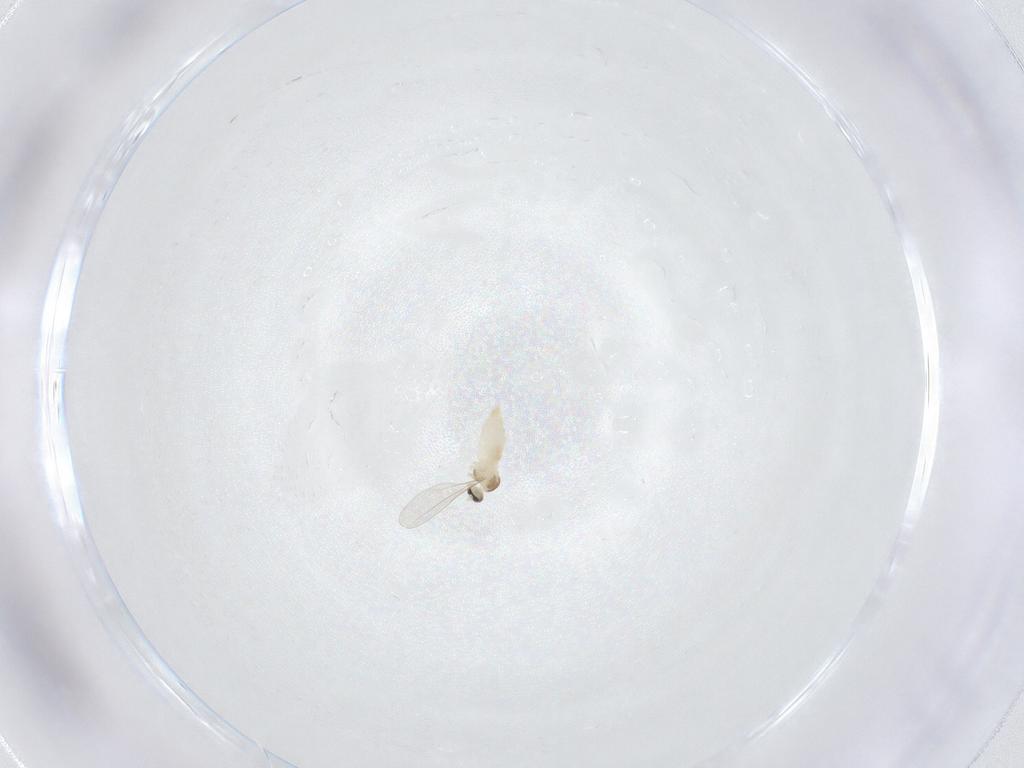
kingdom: Animalia
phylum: Arthropoda
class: Insecta
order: Diptera
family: Cecidomyiidae
